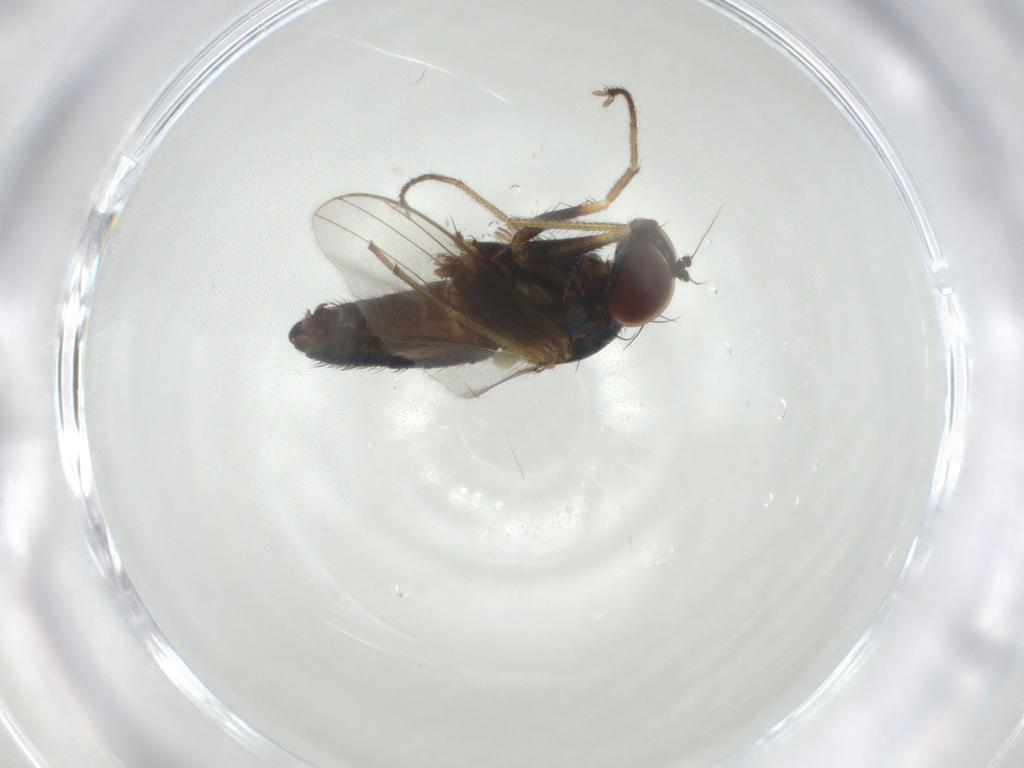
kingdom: Animalia
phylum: Arthropoda
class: Insecta
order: Diptera
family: Dolichopodidae
